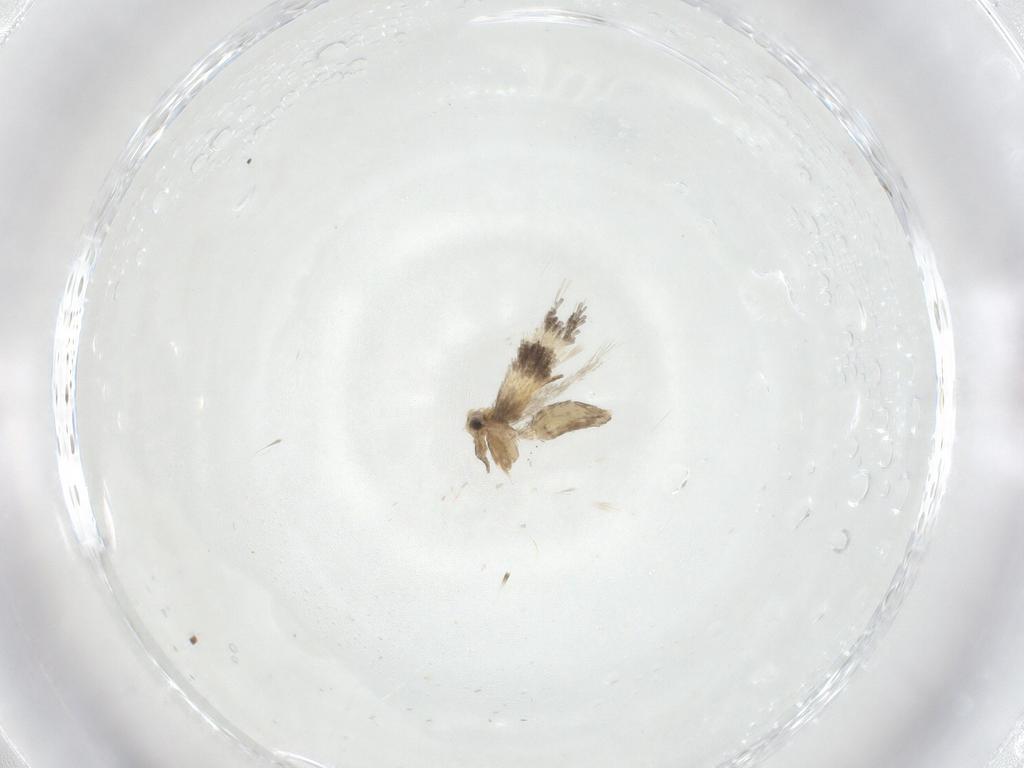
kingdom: Animalia
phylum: Arthropoda
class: Insecta
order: Lepidoptera
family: Nepticulidae
